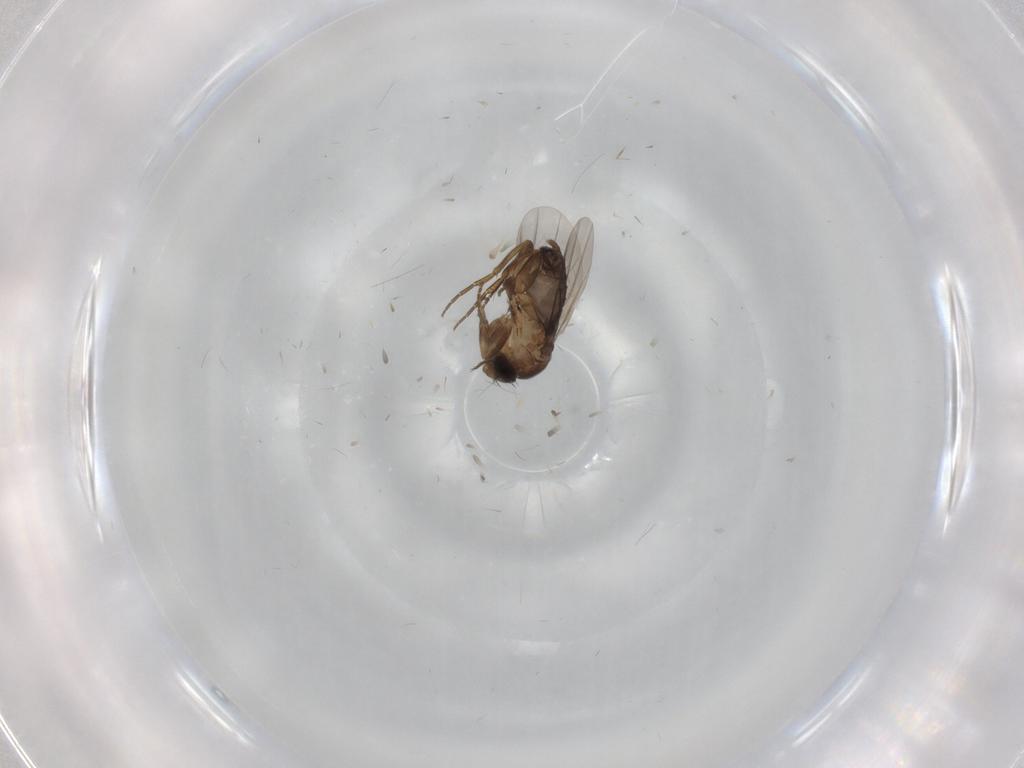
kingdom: Animalia
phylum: Arthropoda
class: Insecta
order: Diptera
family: Phoridae
